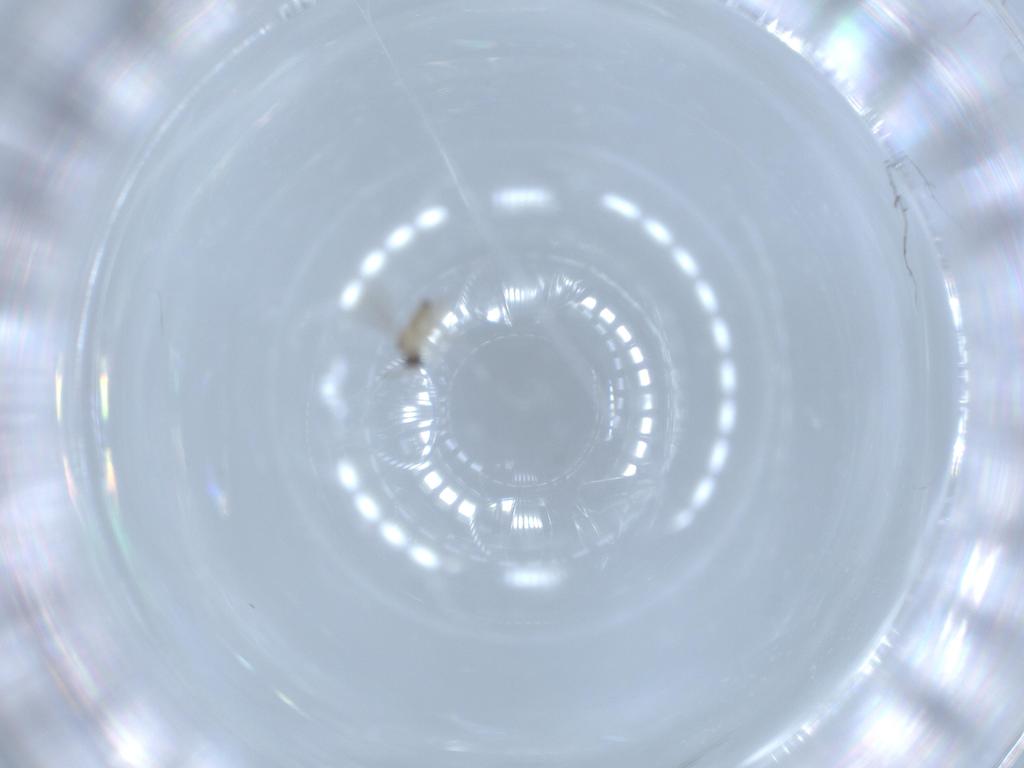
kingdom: Animalia
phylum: Arthropoda
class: Insecta
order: Diptera
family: Cecidomyiidae
